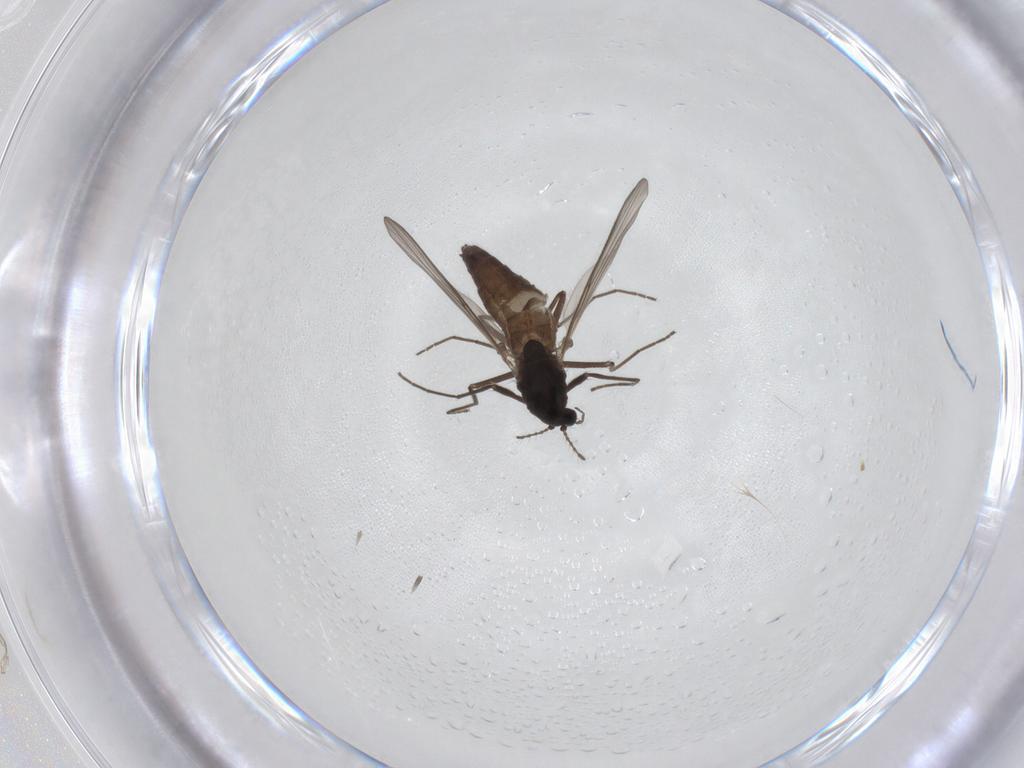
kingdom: Animalia
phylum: Arthropoda
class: Insecta
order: Diptera
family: Chironomidae
